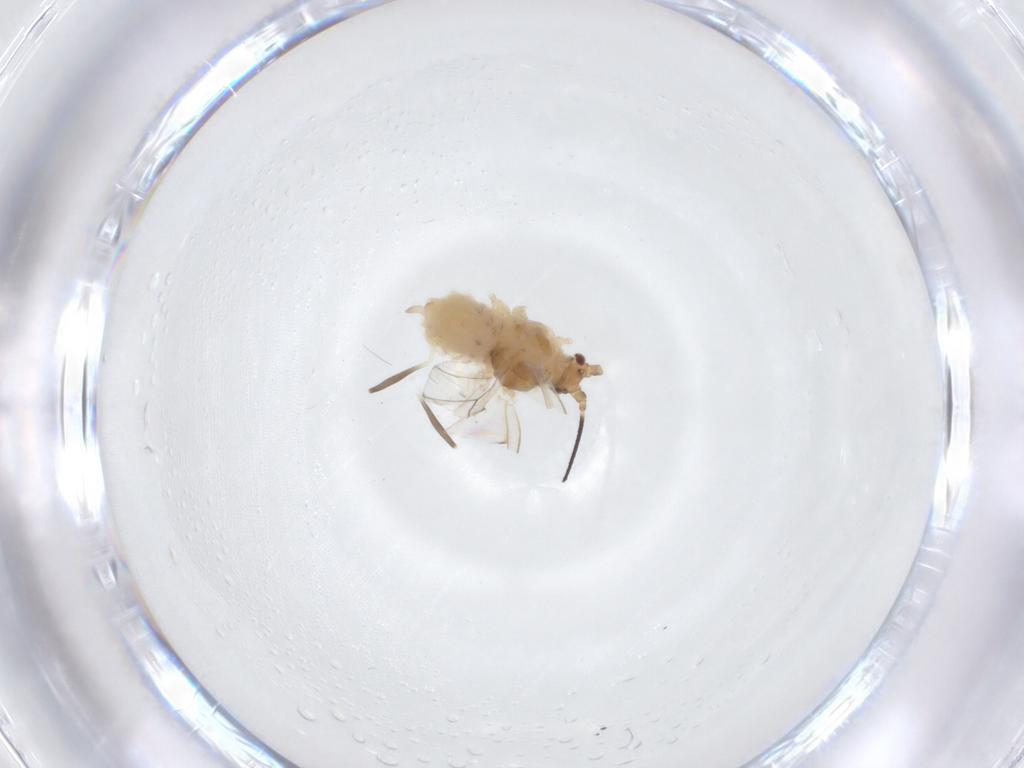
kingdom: Animalia
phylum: Arthropoda
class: Insecta
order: Hemiptera
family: Aphididae
